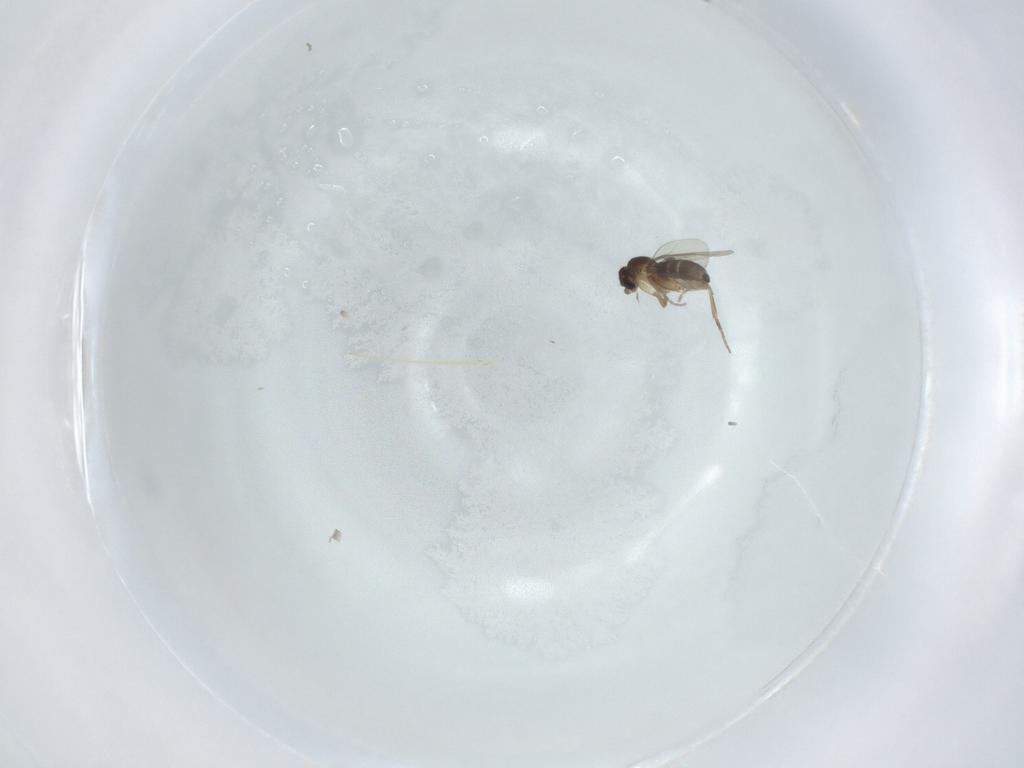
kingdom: Animalia
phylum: Arthropoda
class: Insecta
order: Diptera
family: Phoridae
